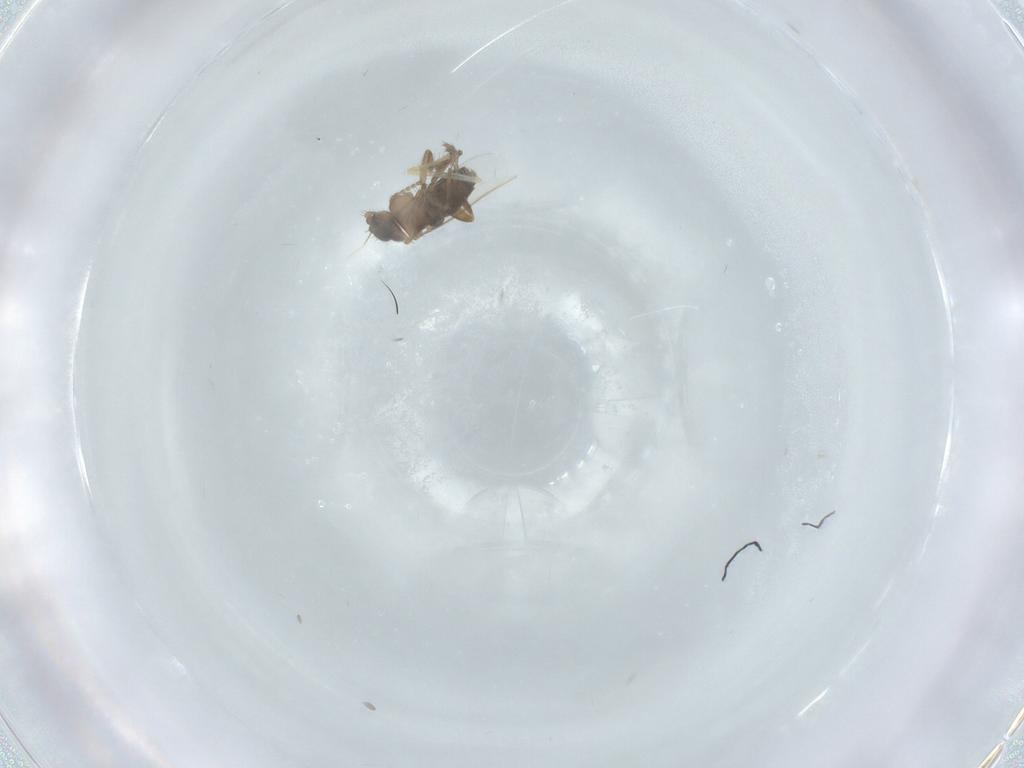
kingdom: Animalia
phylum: Arthropoda
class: Insecta
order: Diptera
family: Chironomidae
